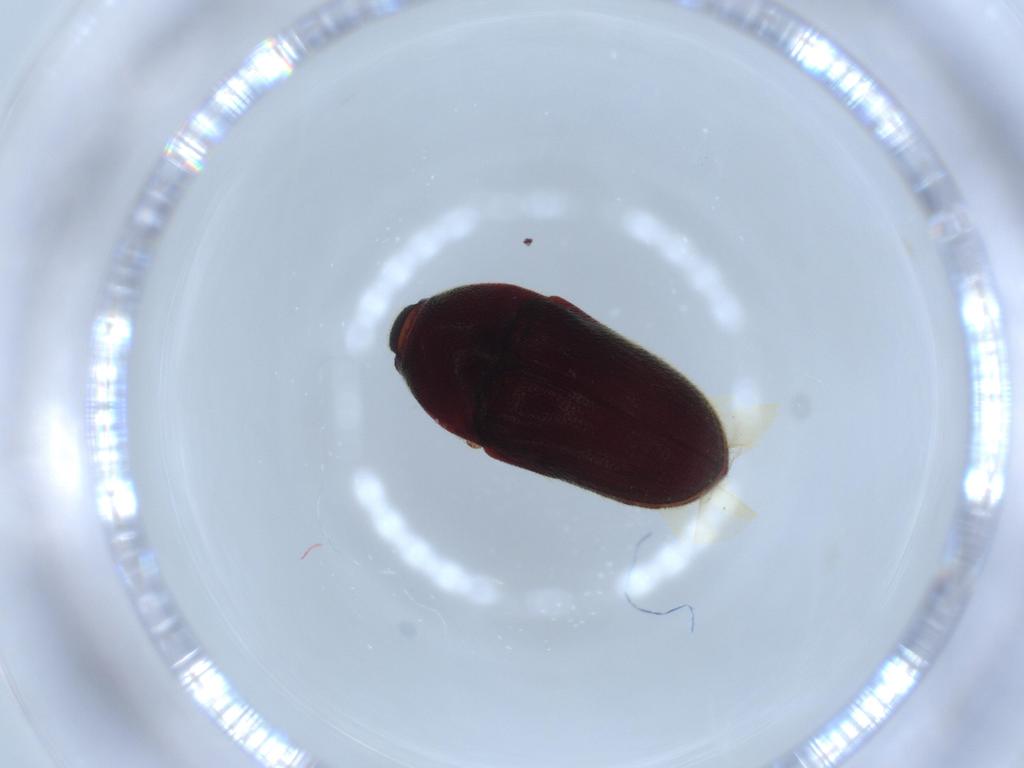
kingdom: Animalia
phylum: Arthropoda
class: Insecta
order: Coleoptera
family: Throscidae
